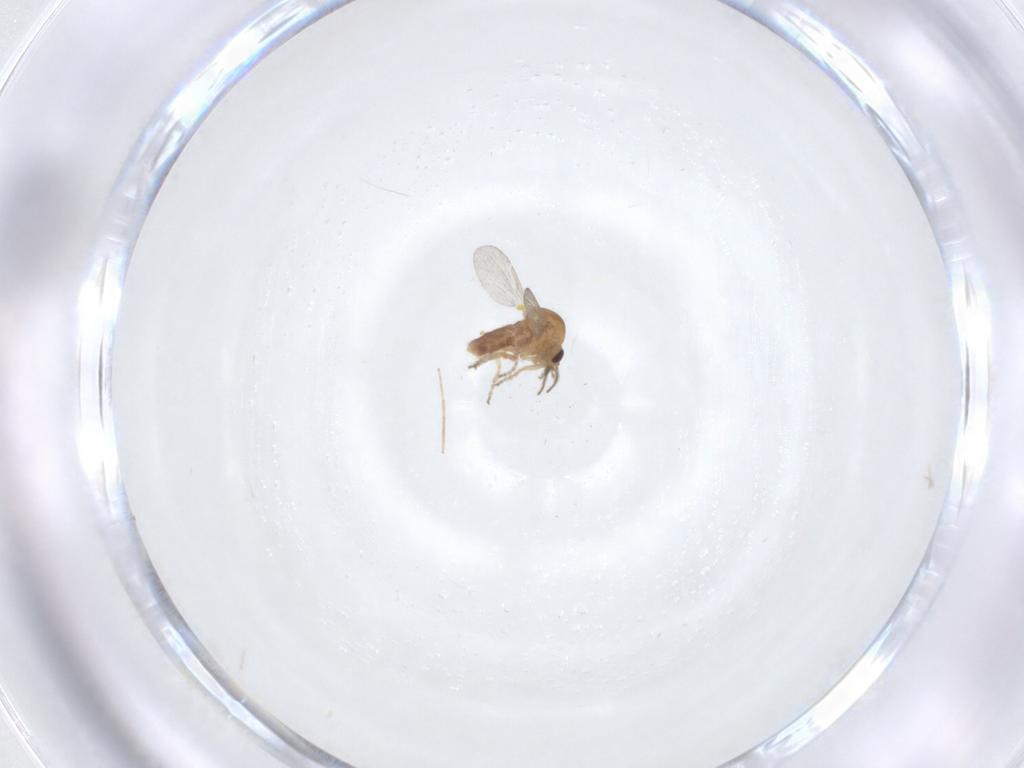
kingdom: Animalia
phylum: Arthropoda
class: Insecta
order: Diptera
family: Ceratopogonidae
